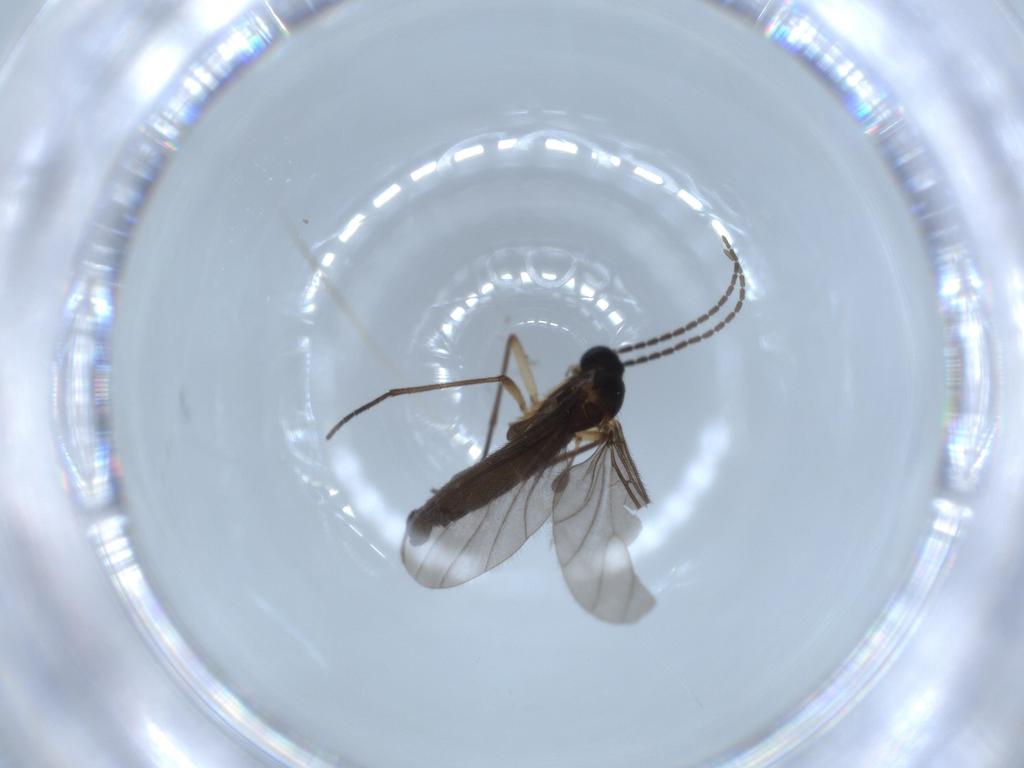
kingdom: Animalia
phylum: Arthropoda
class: Insecta
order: Diptera
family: Sciaridae
